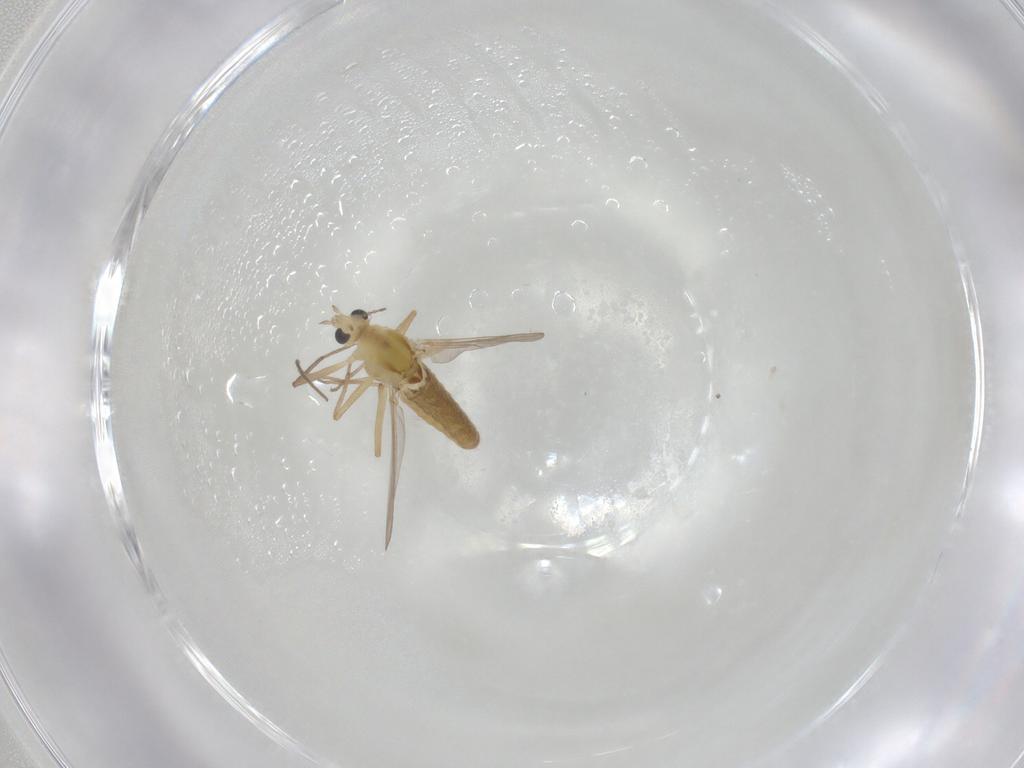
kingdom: Animalia
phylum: Arthropoda
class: Insecta
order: Diptera
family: Chironomidae
